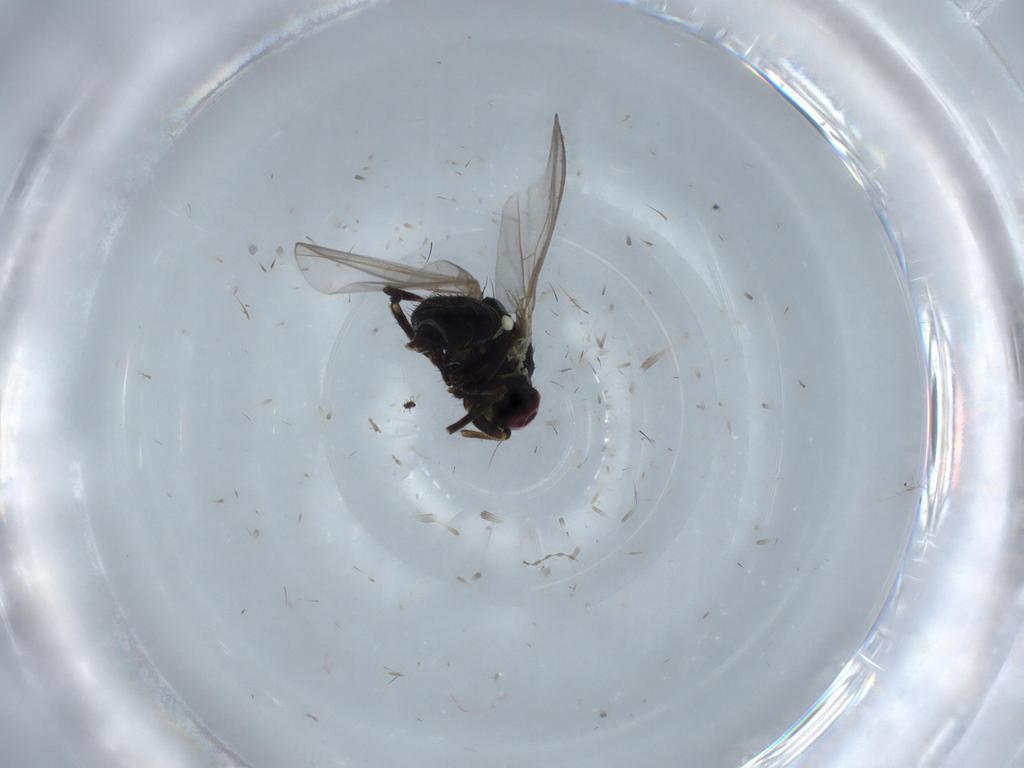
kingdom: Animalia
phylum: Arthropoda
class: Insecta
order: Diptera
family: Agromyzidae
